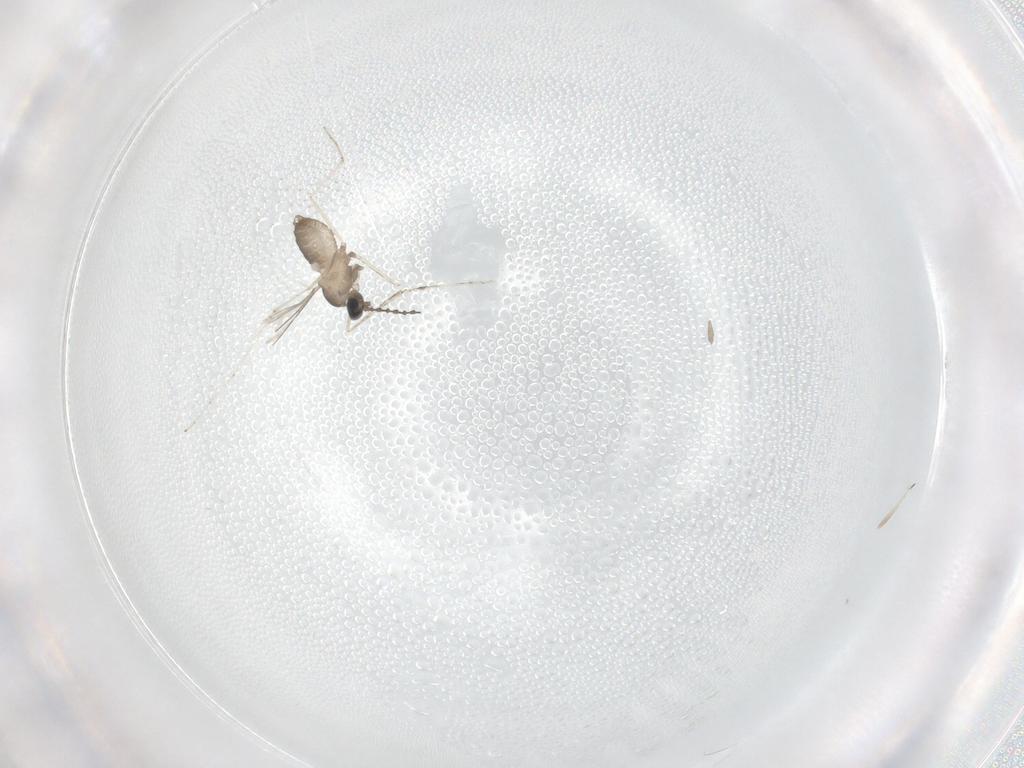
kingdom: Animalia
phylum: Arthropoda
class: Insecta
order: Diptera
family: Cecidomyiidae
